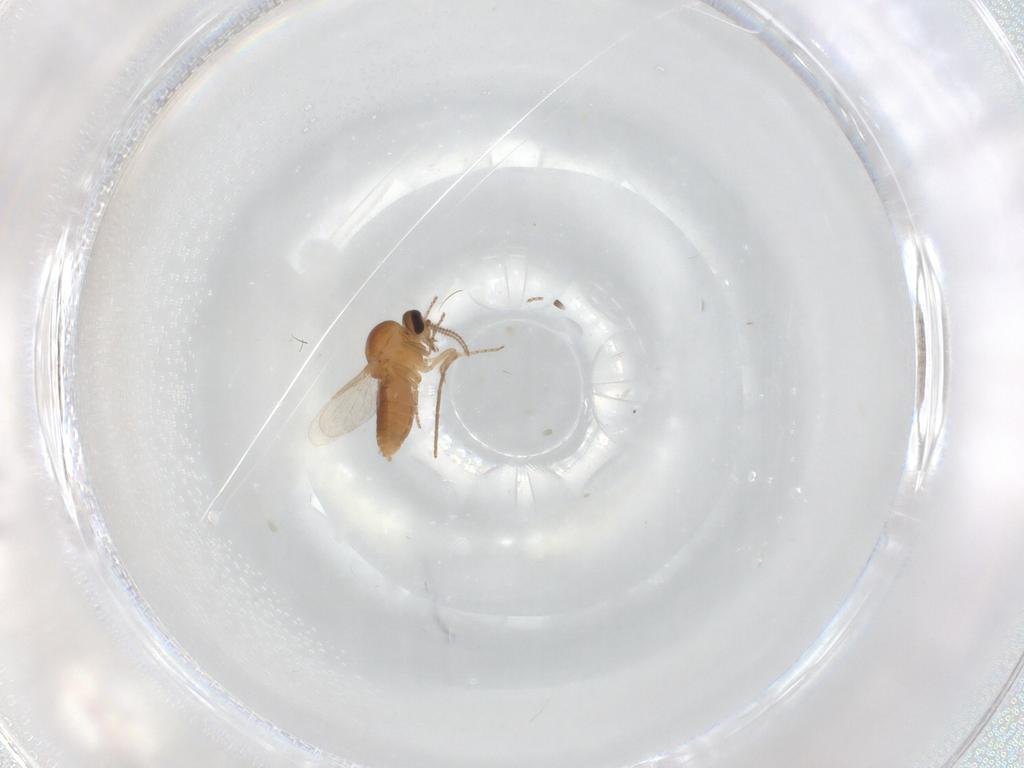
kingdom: Animalia
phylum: Arthropoda
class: Insecta
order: Diptera
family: Ceratopogonidae
